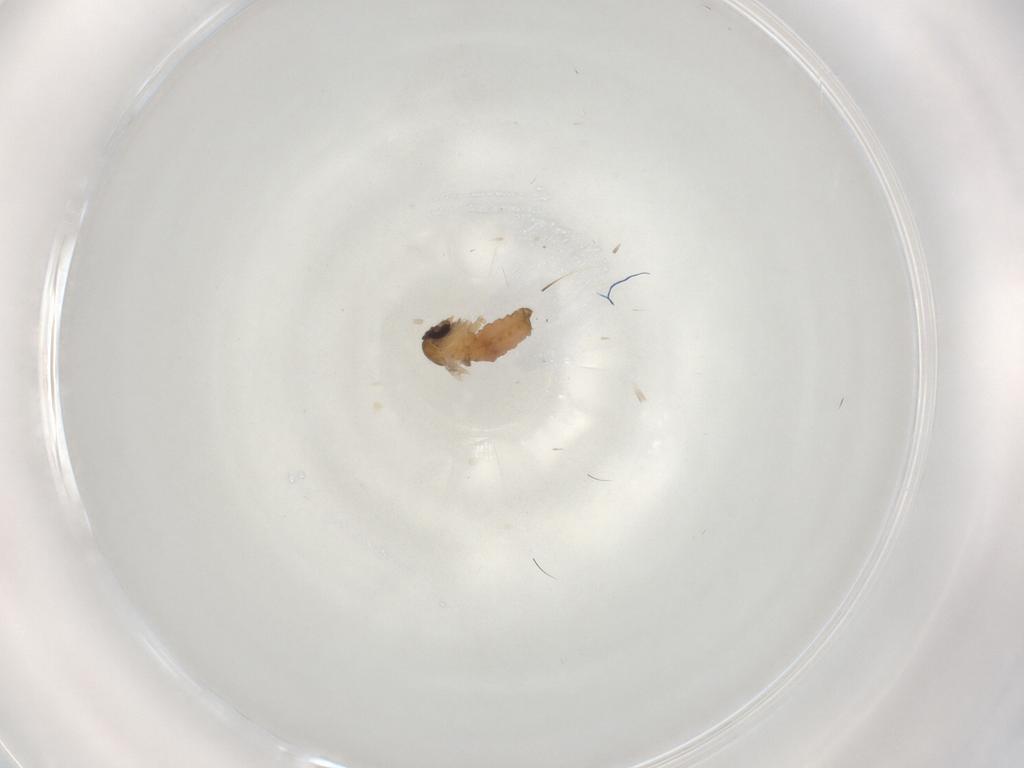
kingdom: Animalia
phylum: Arthropoda
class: Insecta
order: Diptera
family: Psychodidae
